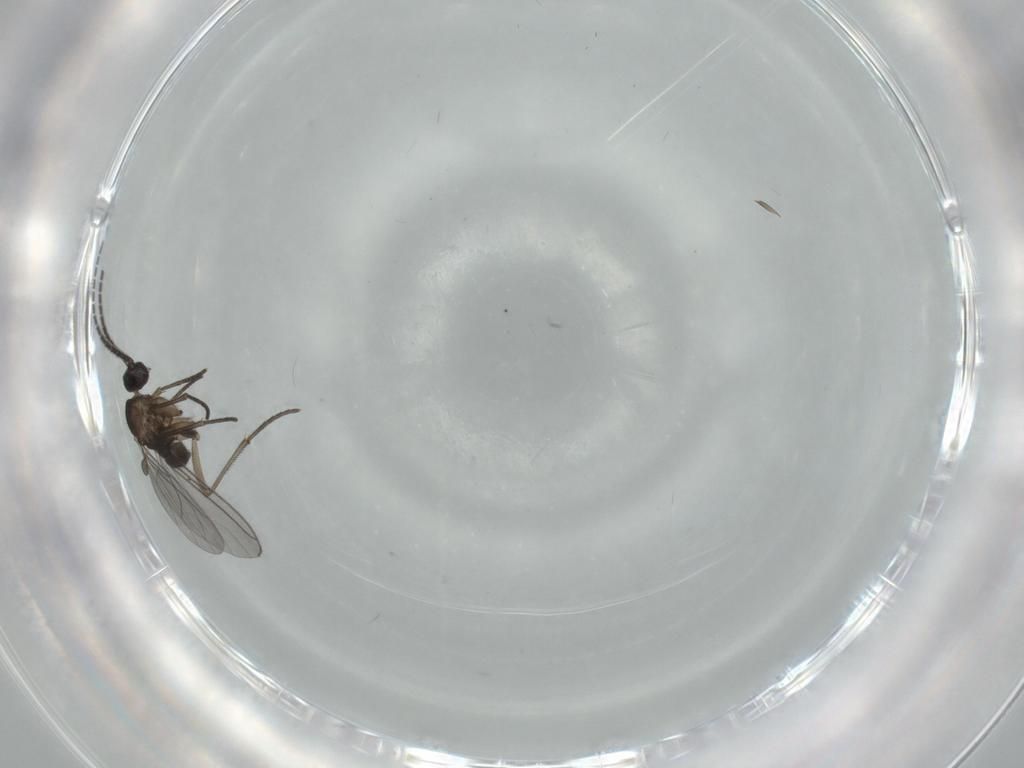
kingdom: Animalia
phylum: Arthropoda
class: Insecta
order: Diptera
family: Sciaridae
